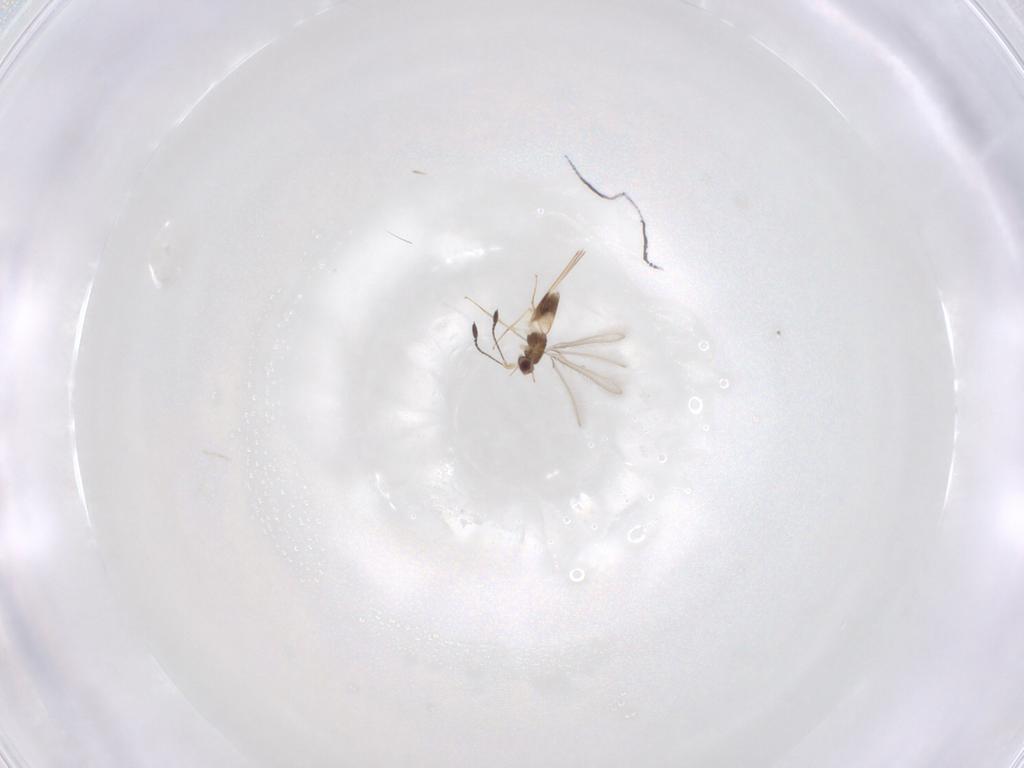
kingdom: Animalia
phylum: Arthropoda
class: Insecta
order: Hymenoptera
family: Mymaridae
